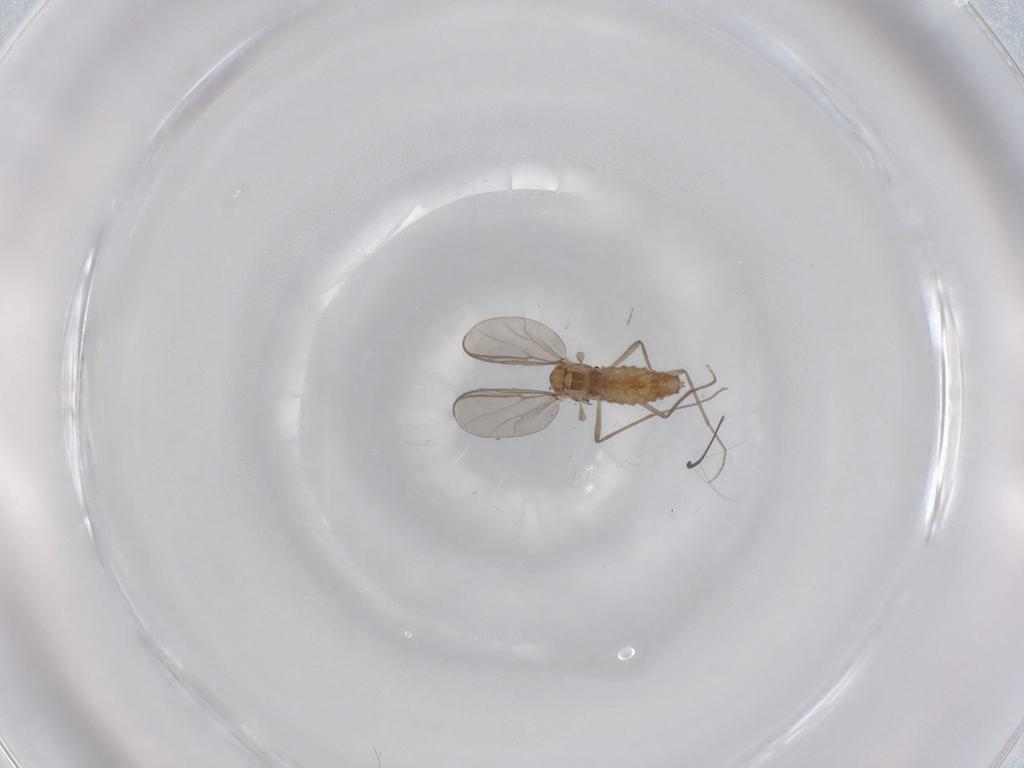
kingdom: Animalia
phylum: Arthropoda
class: Insecta
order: Diptera
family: Chironomidae
